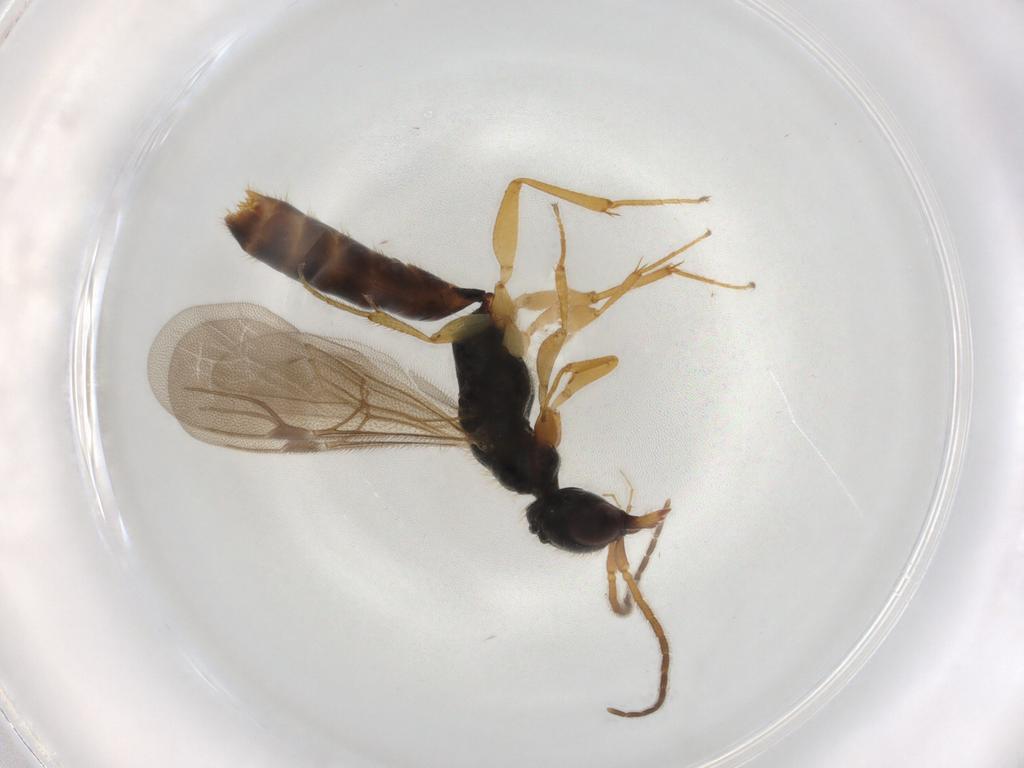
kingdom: Animalia
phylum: Arthropoda
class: Insecta
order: Hymenoptera
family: Bethylidae
